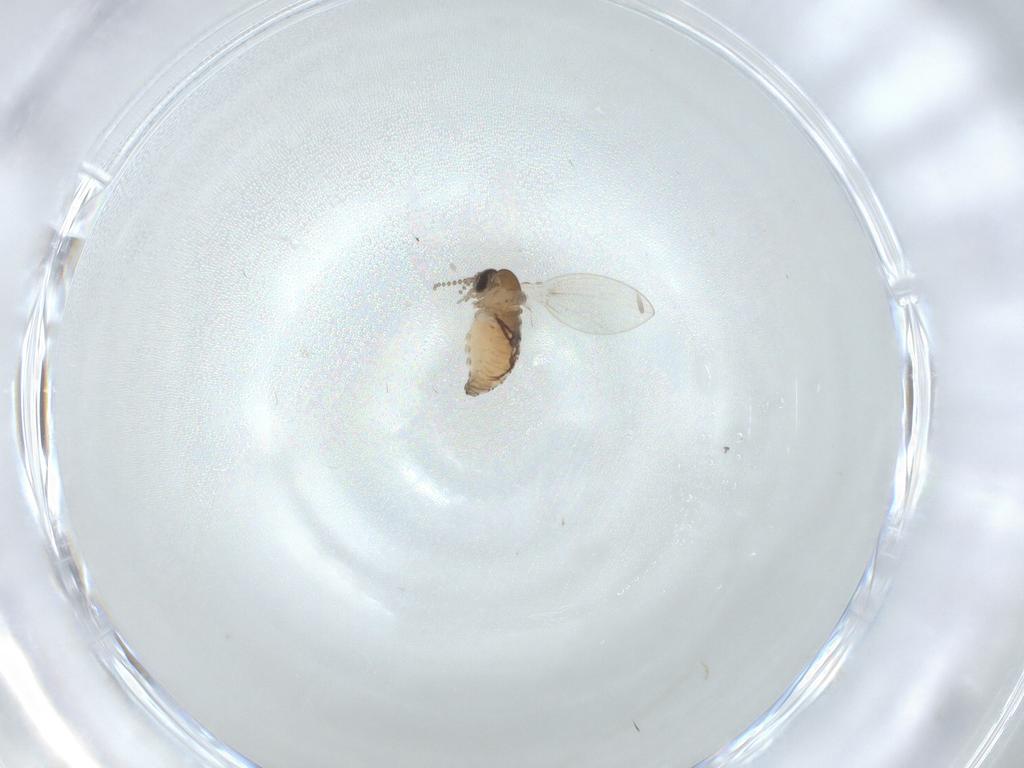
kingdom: Animalia
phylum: Arthropoda
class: Insecta
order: Diptera
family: Psychodidae
